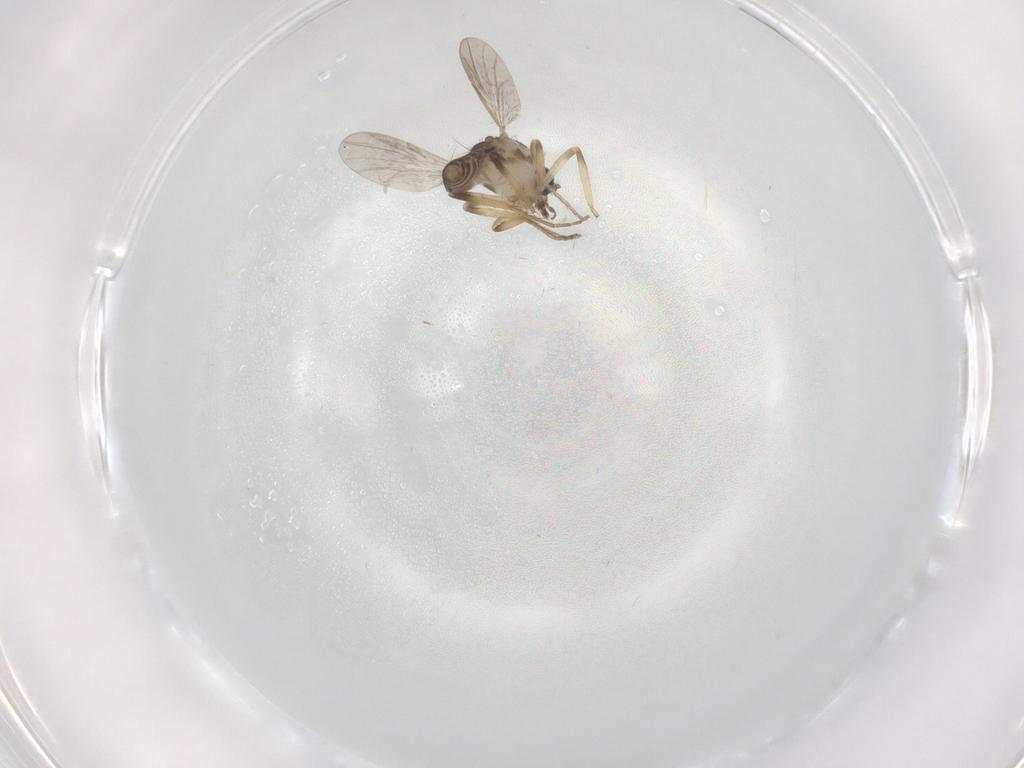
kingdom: Animalia
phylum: Arthropoda
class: Insecta
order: Diptera
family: Ceratopogonidae
